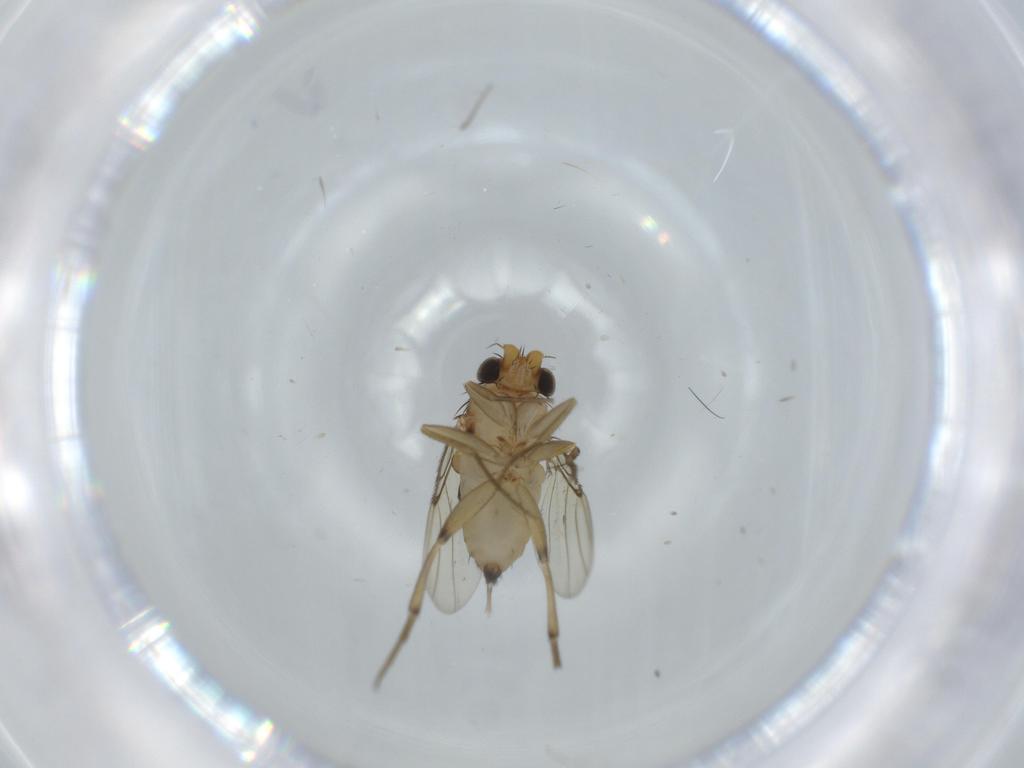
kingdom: Animalia
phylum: Arthropoda
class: Insecta
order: Diptera
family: Chironomidae
